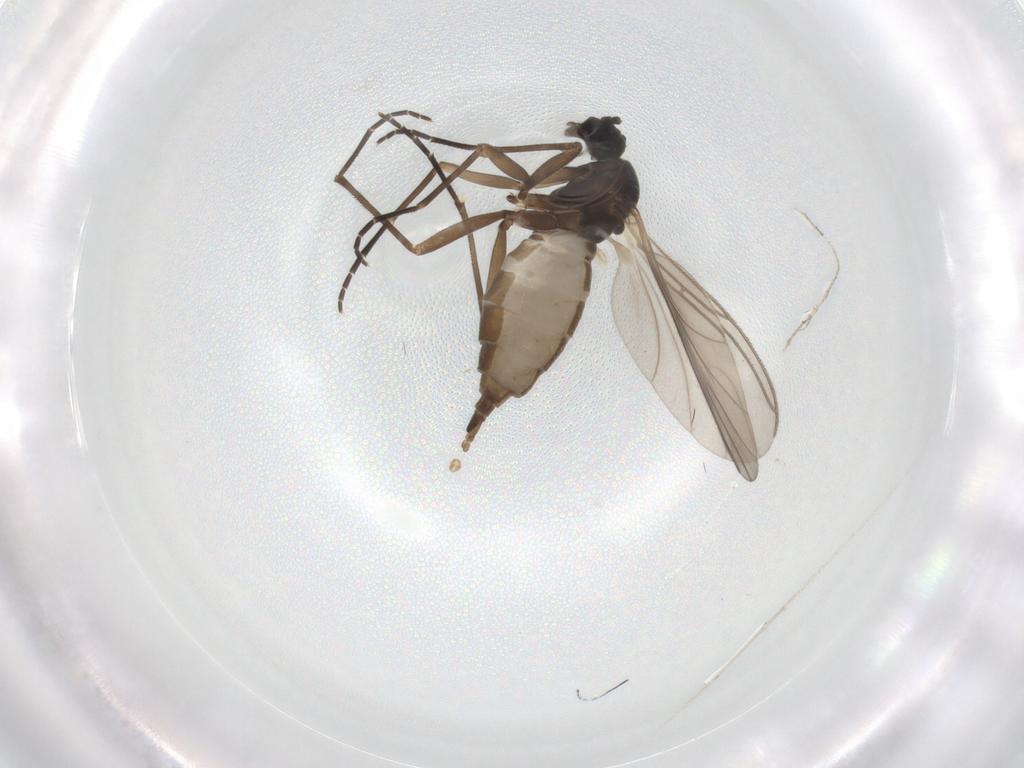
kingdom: Animalia
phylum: Arthropoda
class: Insecta
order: Diptera
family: Sciaridae
